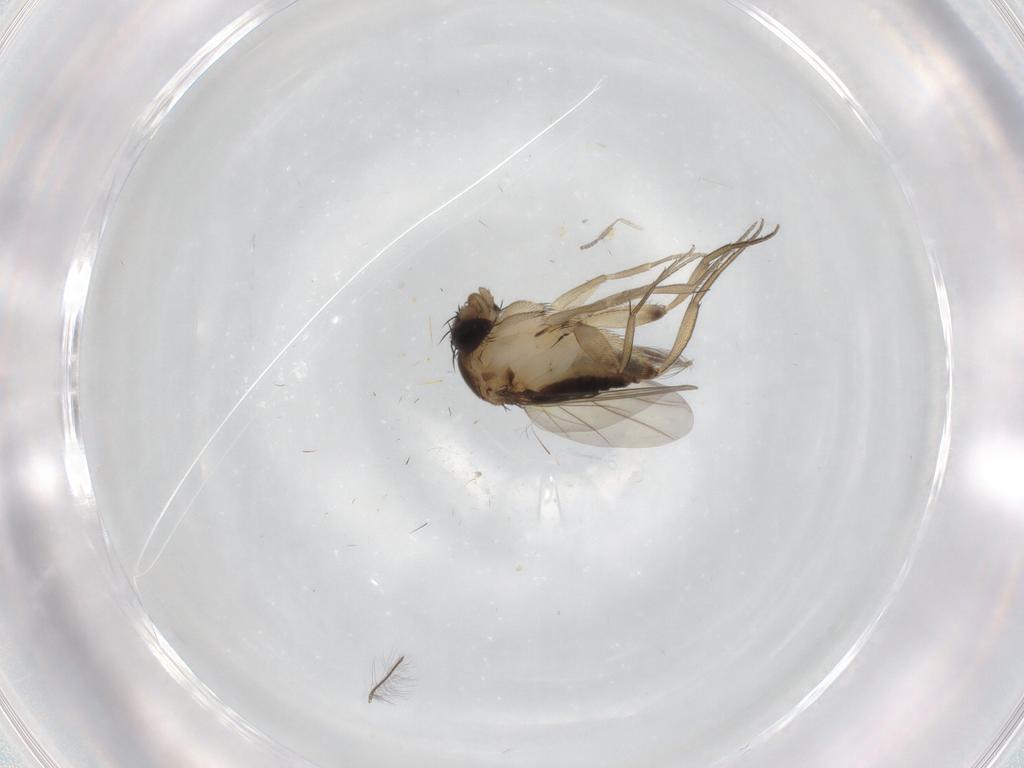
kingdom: Animalia
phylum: Arthropoda
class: Insecta
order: Diptera
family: Phoridae
